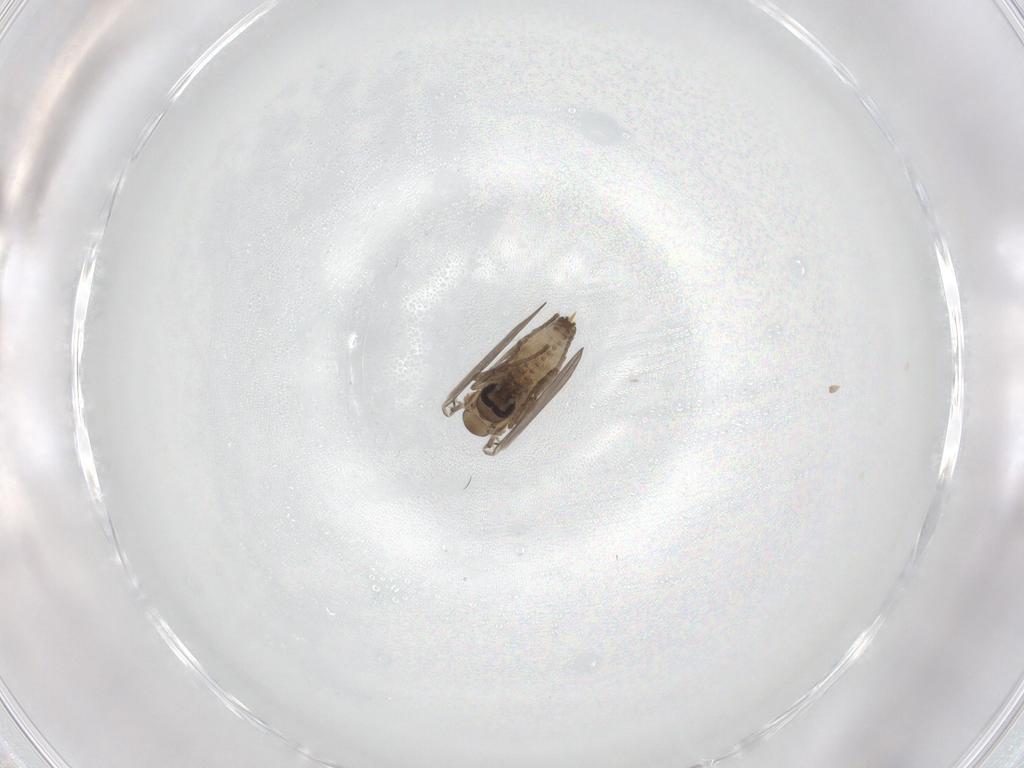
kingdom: Animalia
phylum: Arthropoda
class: Insecta
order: Diptera
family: Psychodidae
